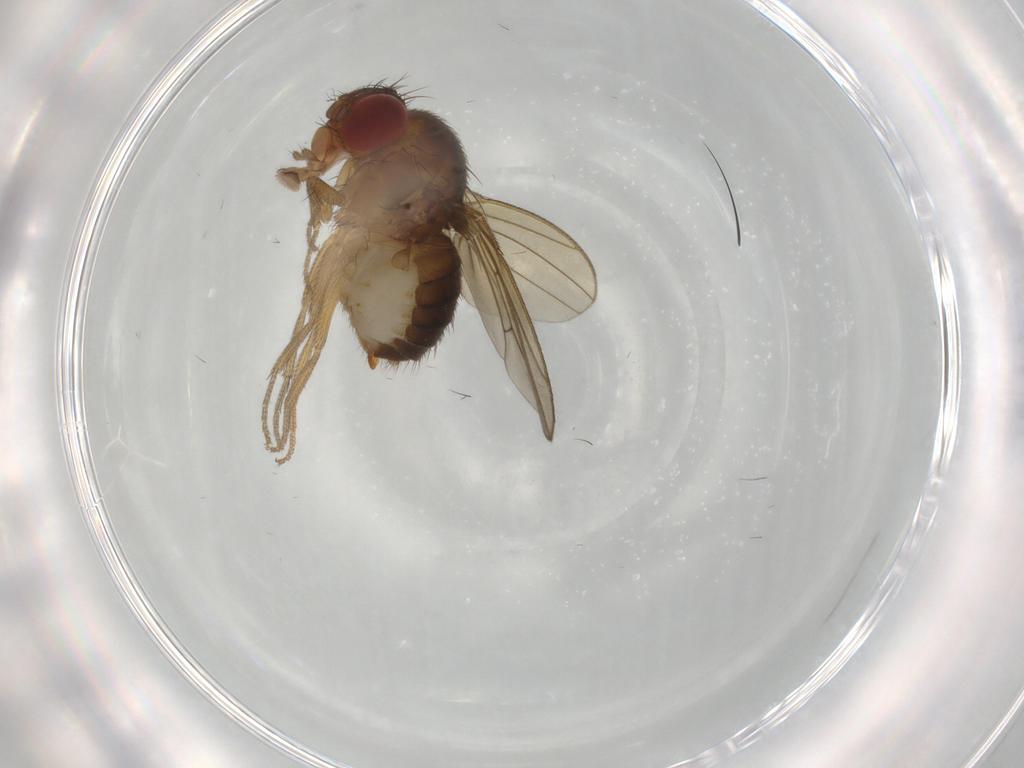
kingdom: Animalia
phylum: Arthropoda
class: Insecta
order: Diptera
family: Drosophilidae
